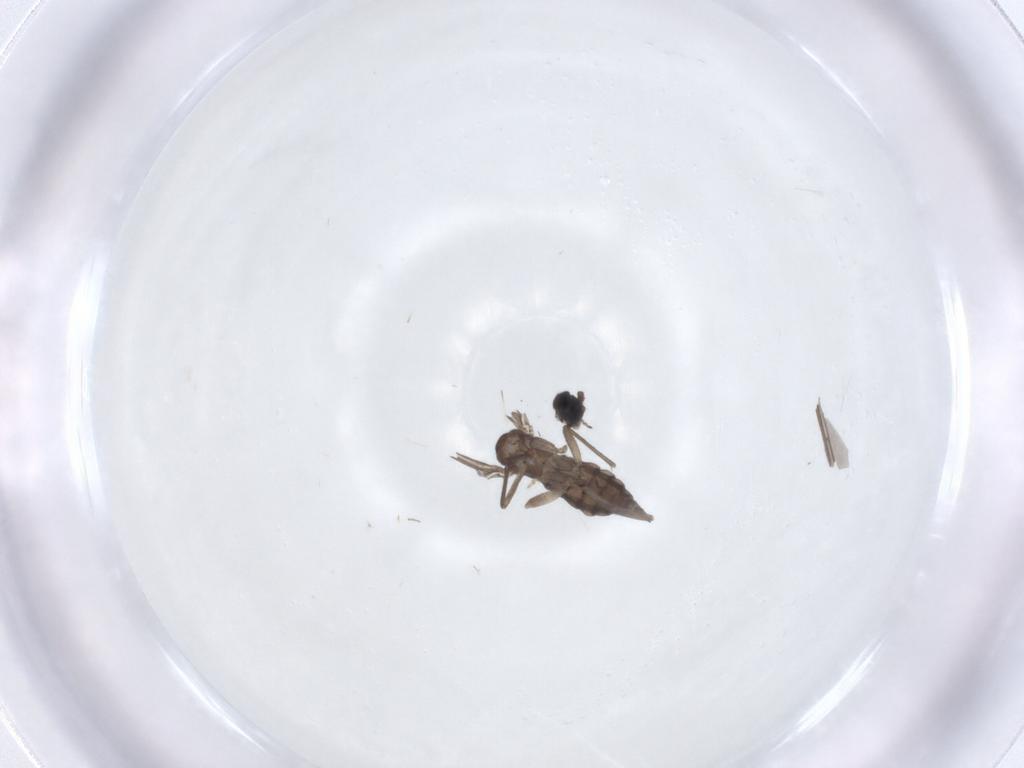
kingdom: Animalia
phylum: Arthropoda
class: Insecta
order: Diptera
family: Sciaridae
